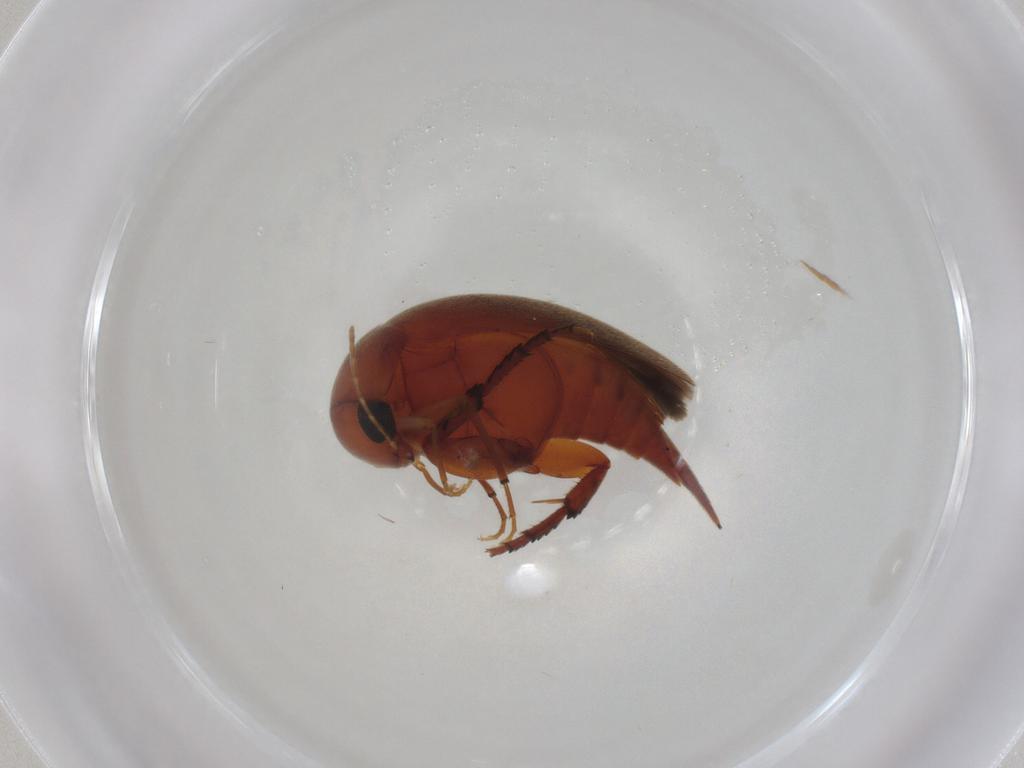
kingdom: Animalia
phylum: Arthropoda
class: Insecta
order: Coleoptera
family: Mordellidae
